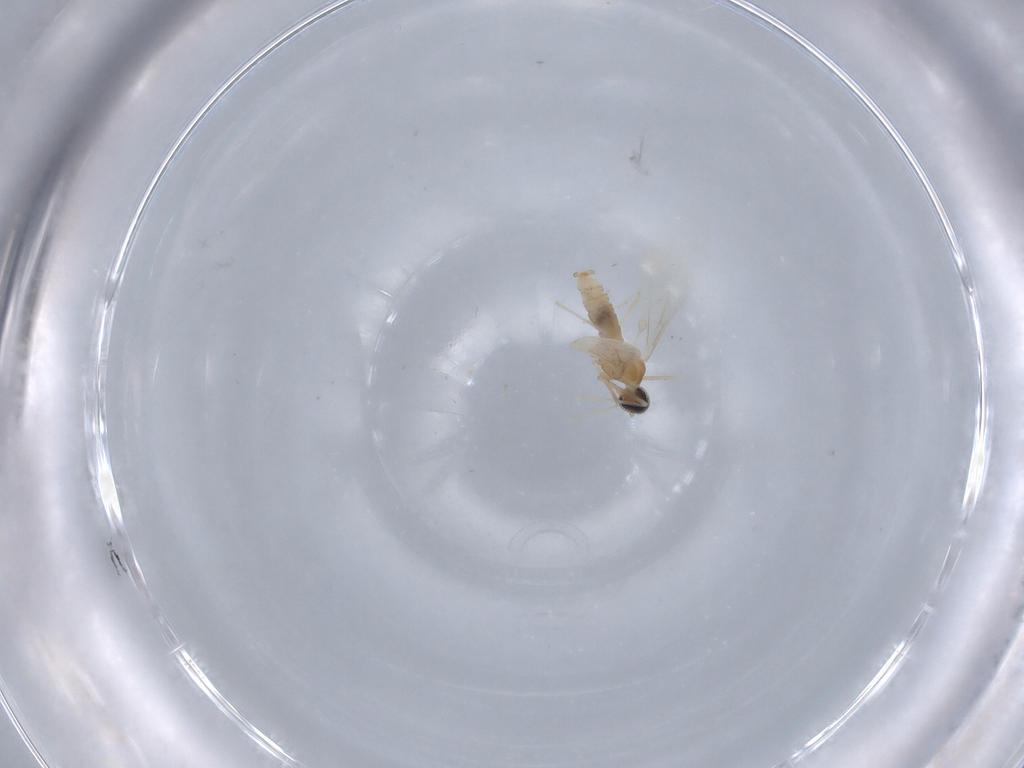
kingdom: Animalia
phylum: Arthropoda
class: Insecta
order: Diptera
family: Cecidomyiidae
